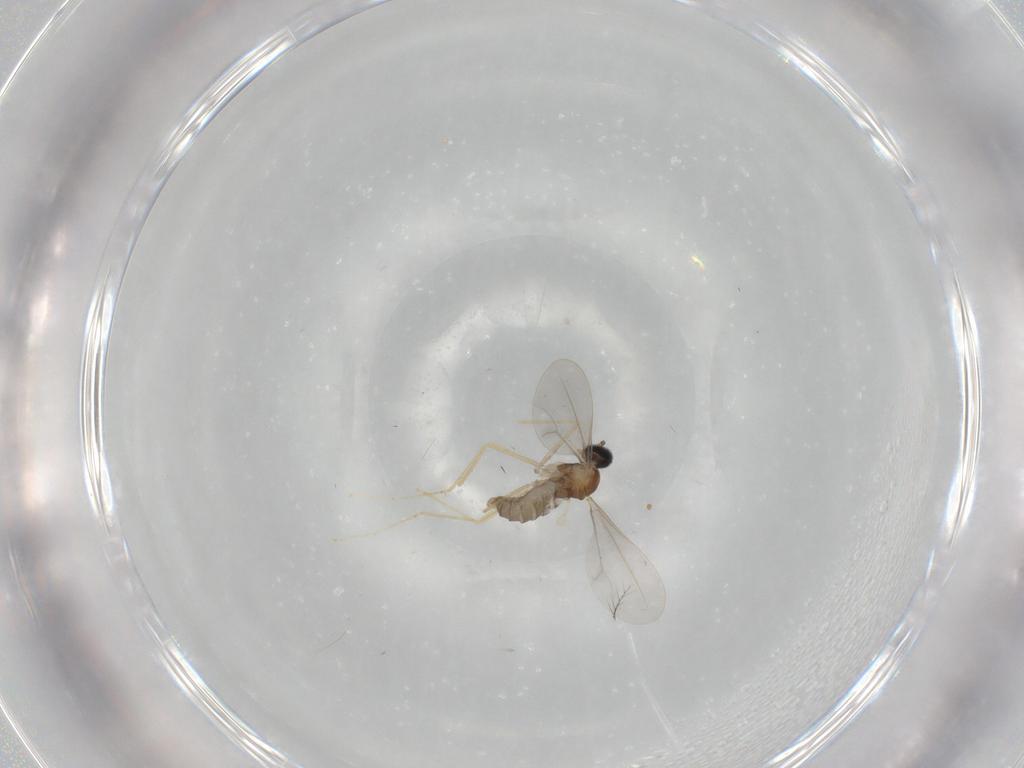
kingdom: Animalia
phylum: Arthropoda
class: Insecta
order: Diptera
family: Cecidomyiidae
